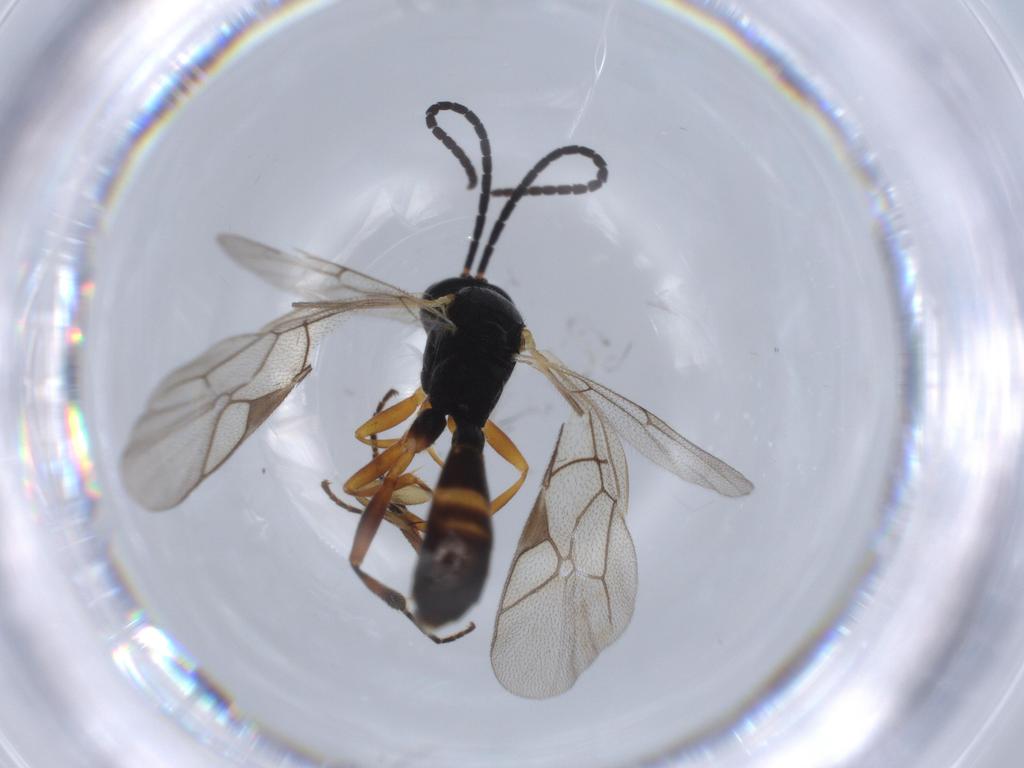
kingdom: Animalia
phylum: Arthropoda
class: Insecta
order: Hymenoptera
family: Ichneumonidae
